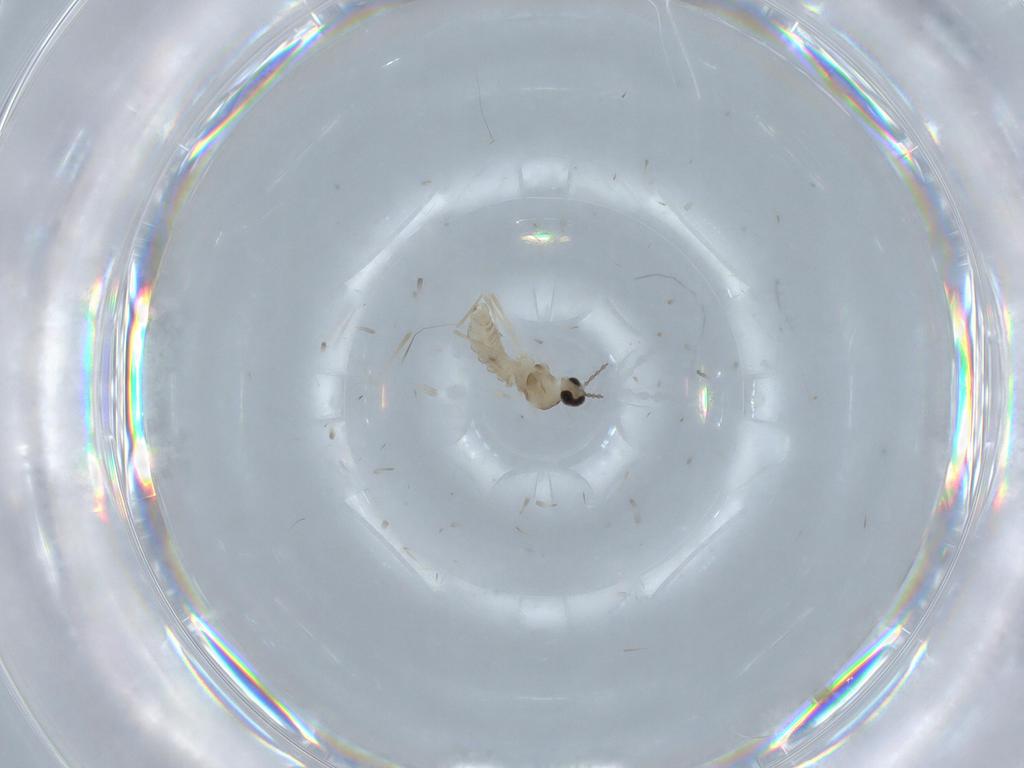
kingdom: Animalia
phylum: Arthropoda
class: Insecta
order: Diptera
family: Cecidomyiidae
